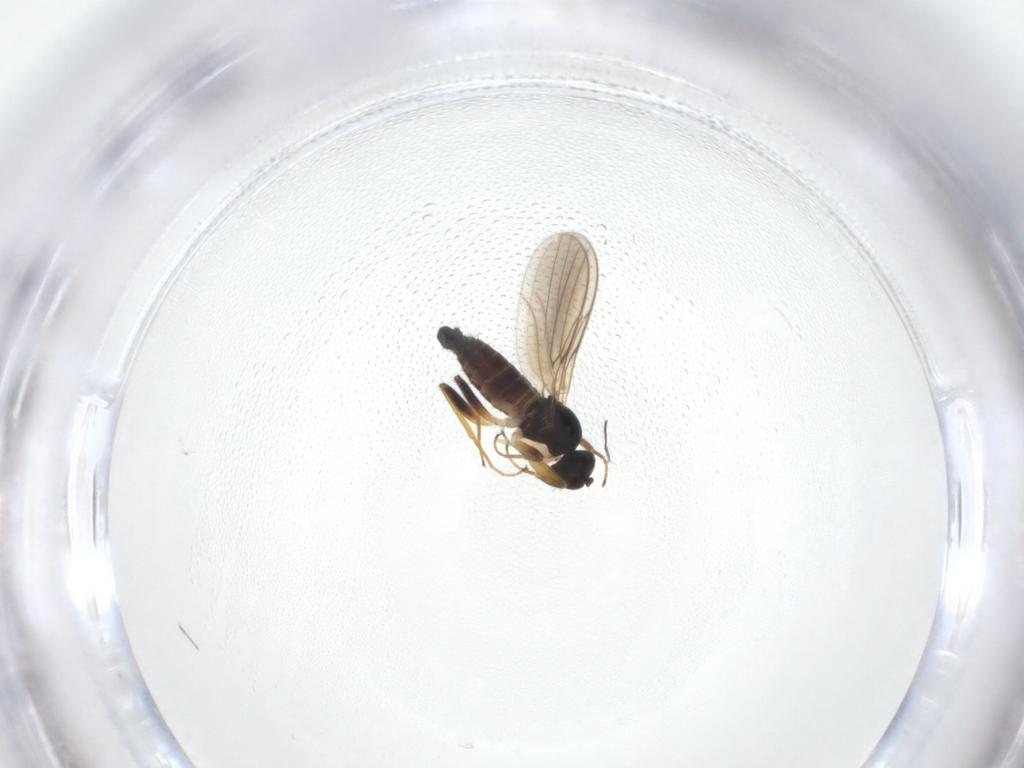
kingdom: Animalia
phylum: Arthropoda
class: Insecta
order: Diptera
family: Hybotidae
